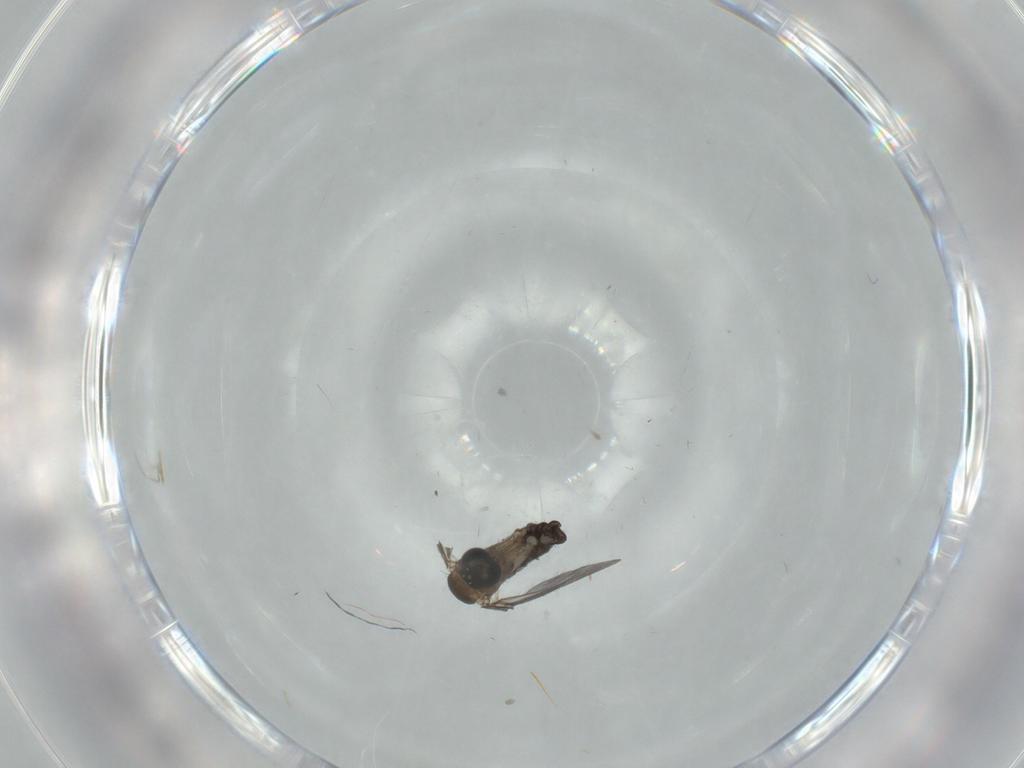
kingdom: Animalia
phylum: Arthropoda
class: Insecta
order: Diptera
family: Sciaridae
